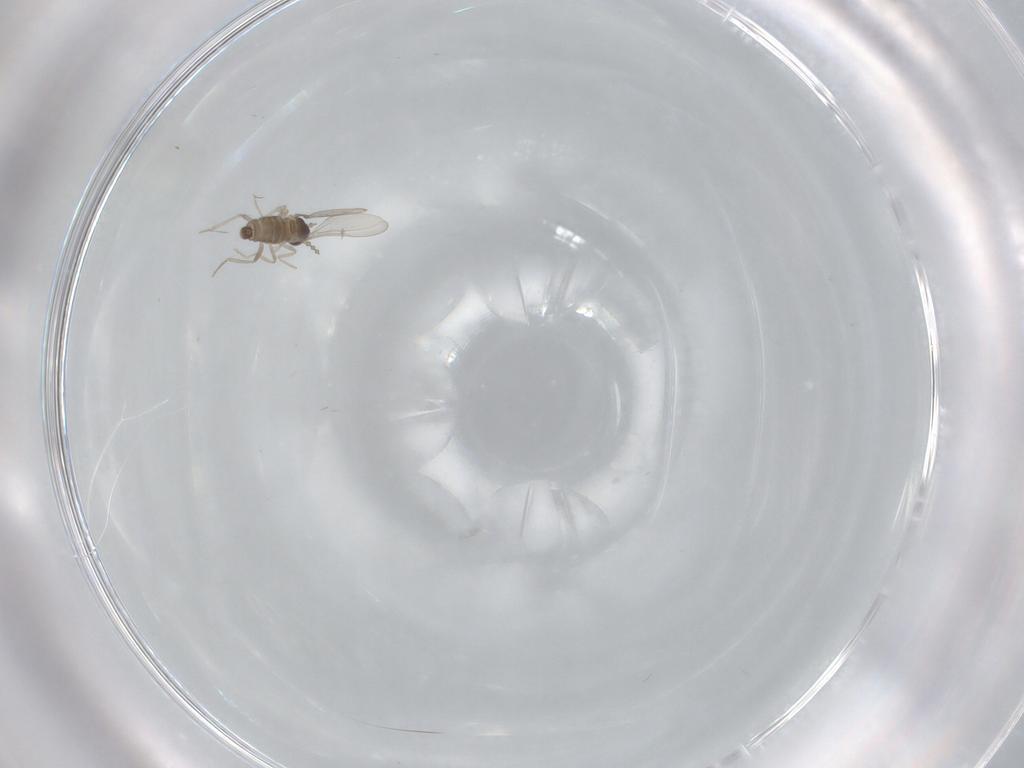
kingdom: Animalia
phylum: Arthropoda
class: Insecta
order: Diptera
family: Cecidomyiidae
